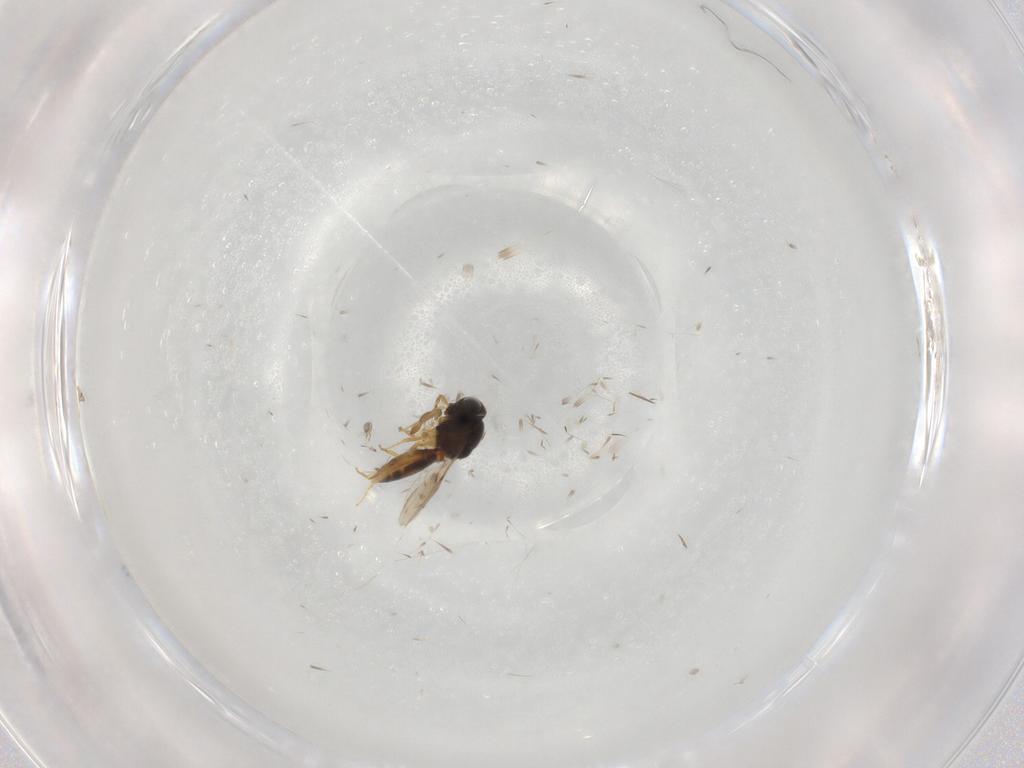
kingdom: Animalia
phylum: Arthropoda
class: Insecta
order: Hymenoptera
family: Scelionidae
